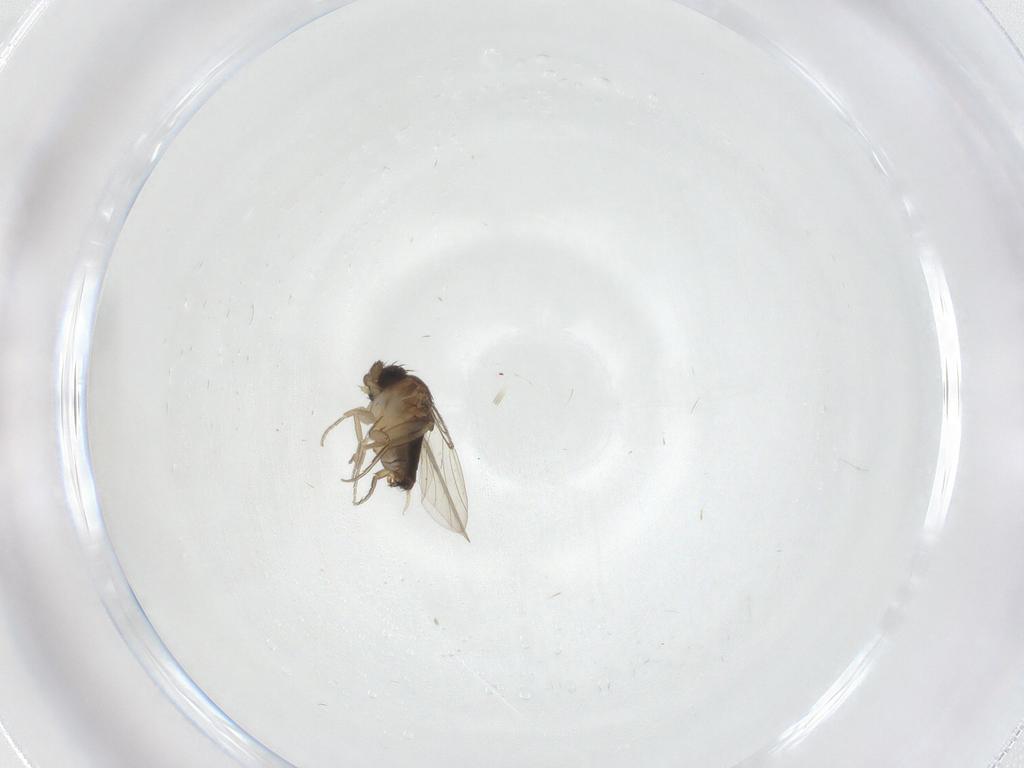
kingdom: Animalia
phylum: Arthropoda
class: Insecta
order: Diptera
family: Phoridae
